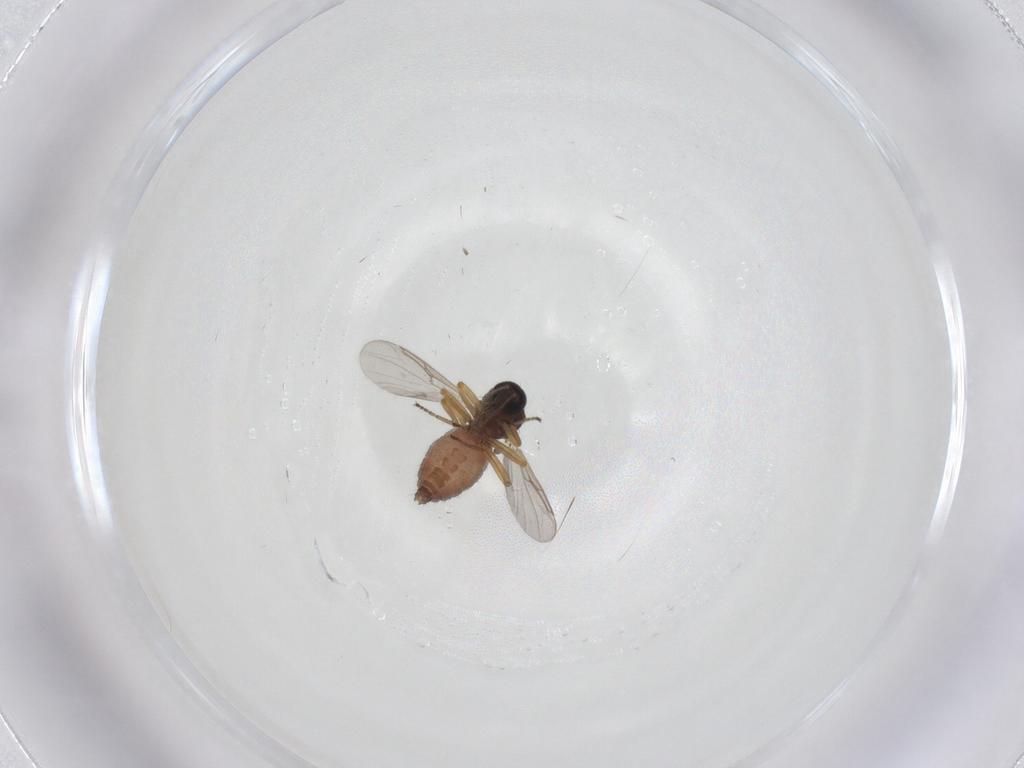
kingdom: Animalia
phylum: Arthropoda
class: Insecta
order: Diptera
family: Ceratopogonidae
